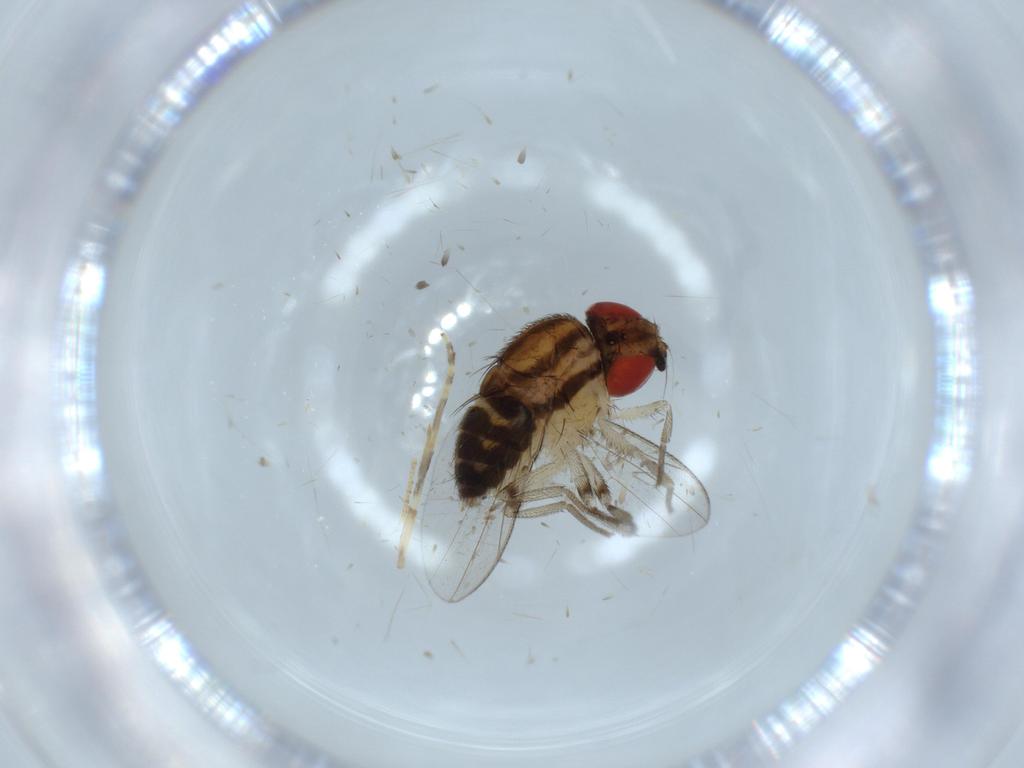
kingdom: Animalia
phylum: Arthropoda
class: Insecta
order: Diptera
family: Drosophilidae
